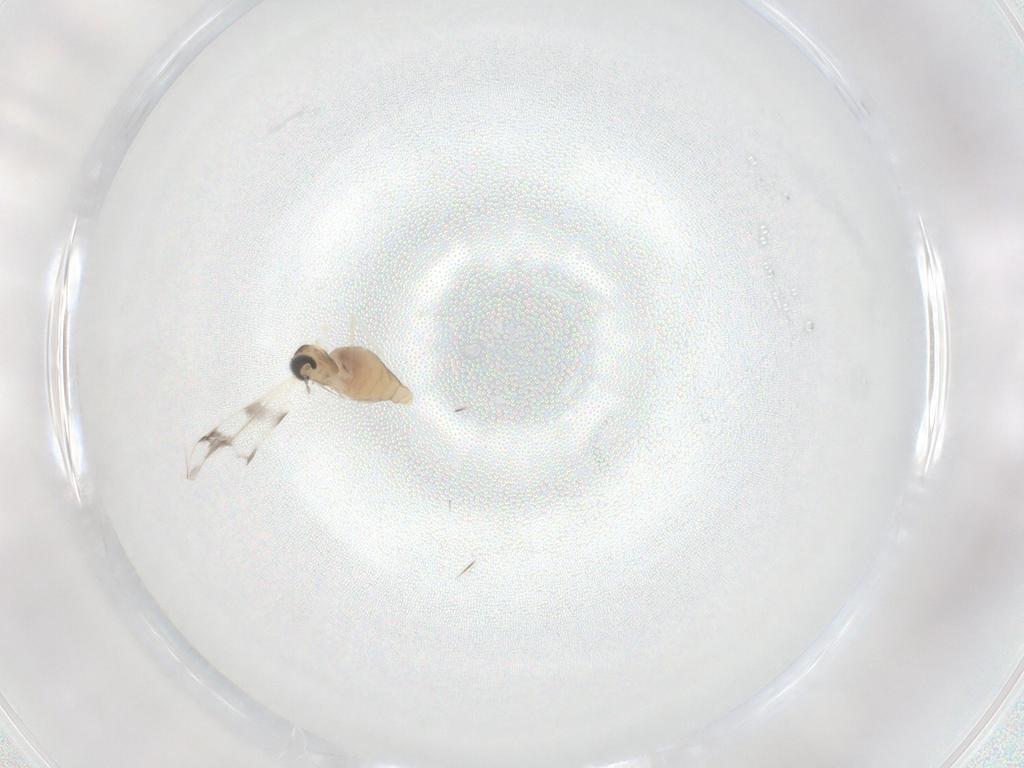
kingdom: Animalia
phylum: Arthropoda
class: Insecta
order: Diptera
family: Cecidomyiidae
